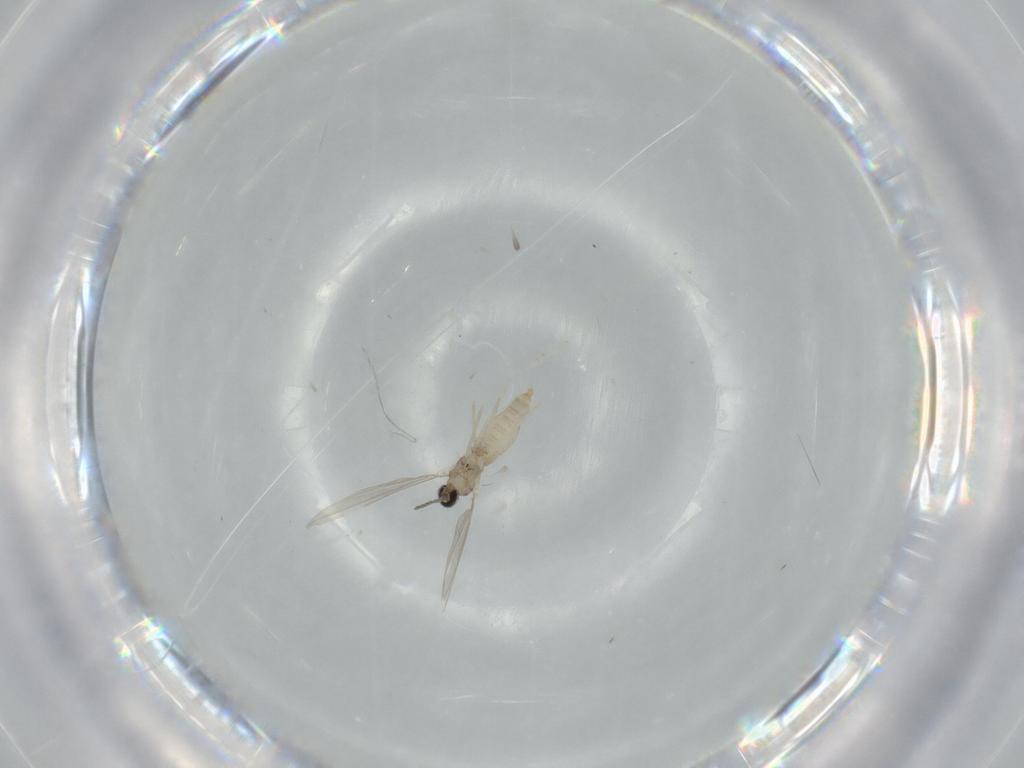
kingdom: Animalia
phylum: Arthropoda
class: Insecta
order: Diptera
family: Cecidomyiidae
